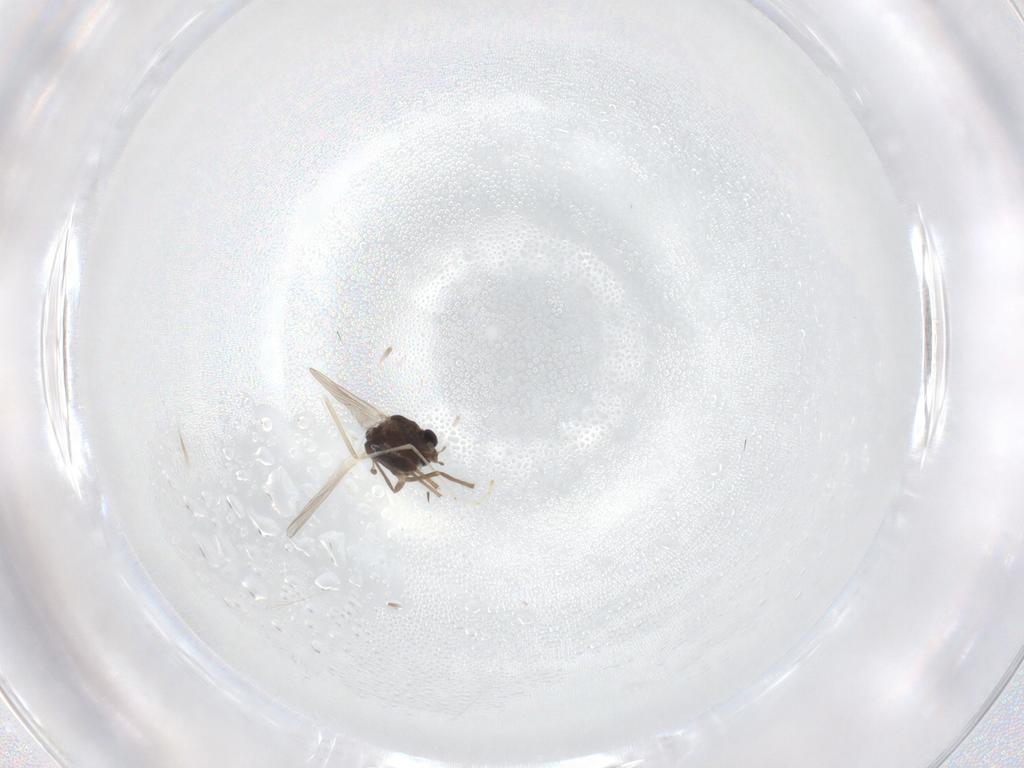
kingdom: Animalia
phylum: Arthropoda
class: Insecta
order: Diptera
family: Chironomidae
